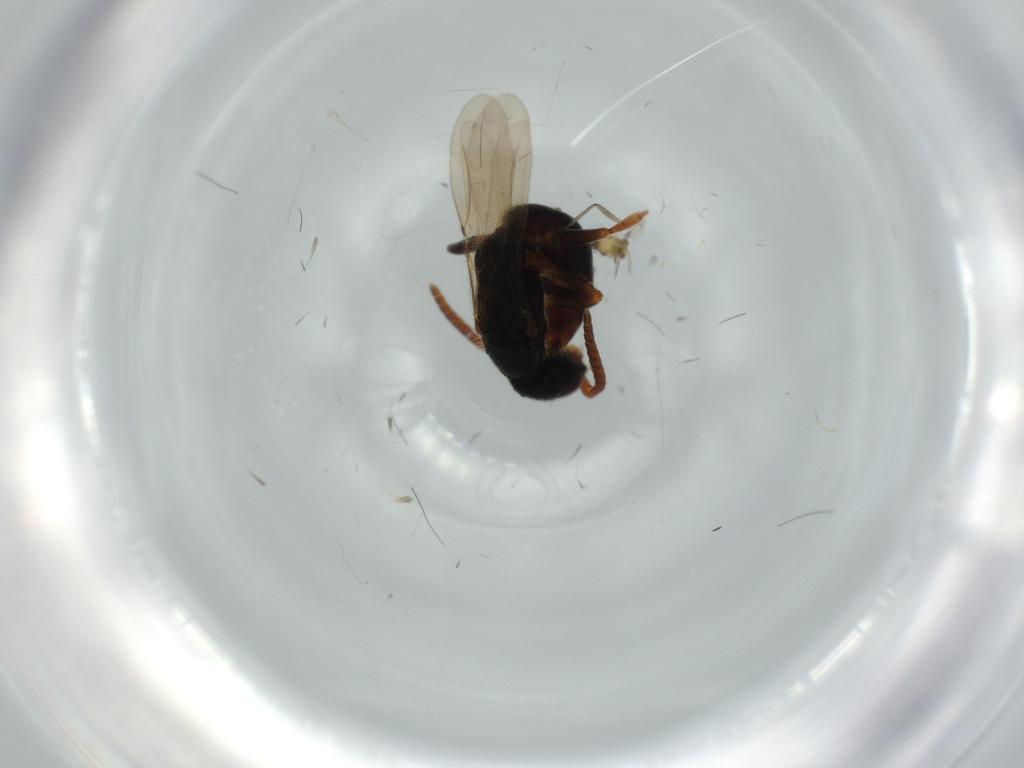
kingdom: Animalia
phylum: Arthropoda
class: Insecta
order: Hymenoptera
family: Bethylidae
